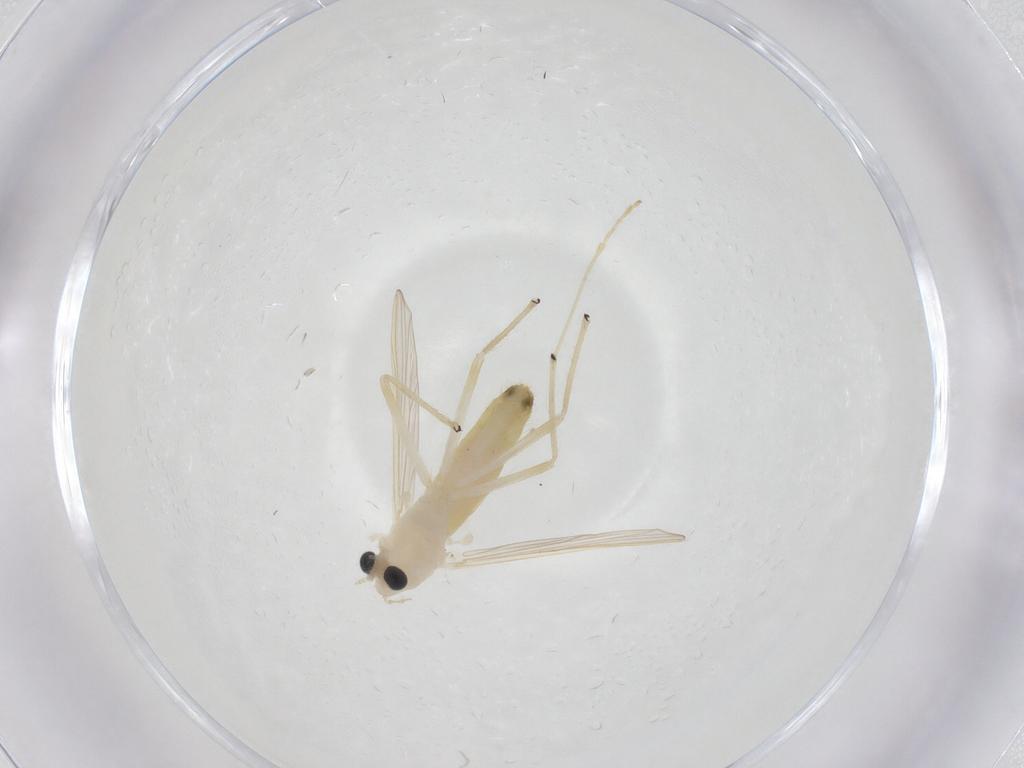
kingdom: Animalia
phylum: Arthropoda
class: Insecta
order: Diptera
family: Chironomidae
